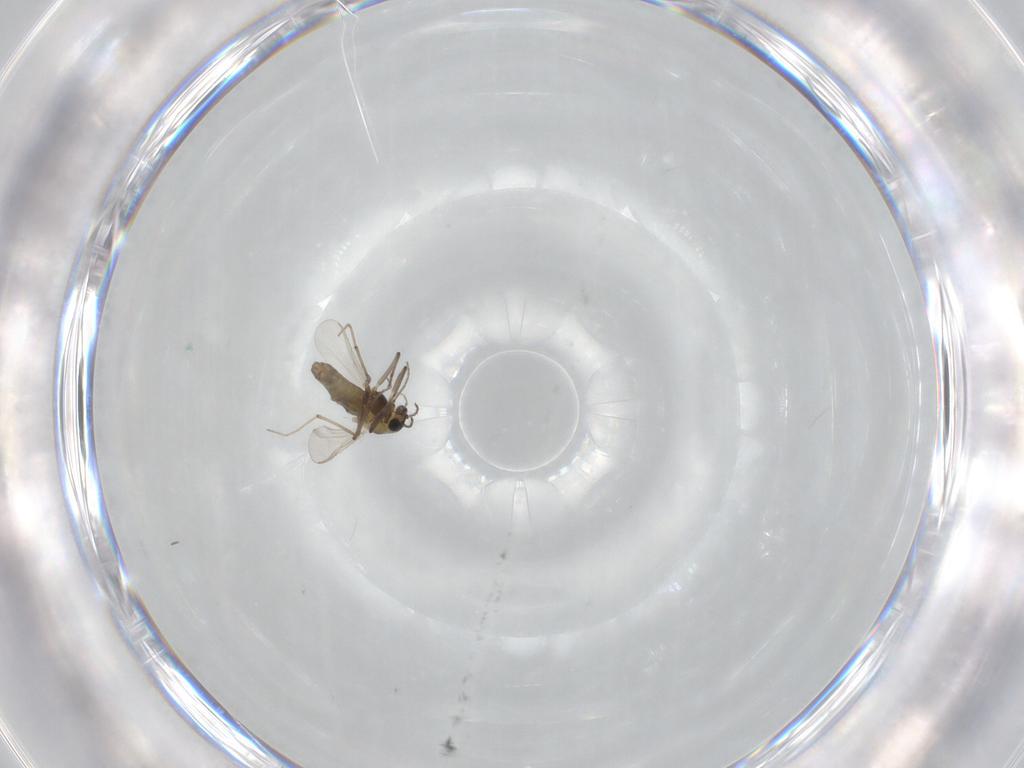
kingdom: Animalia
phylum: Arthropoda
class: Insecta
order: Diptera
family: Chironomidae
